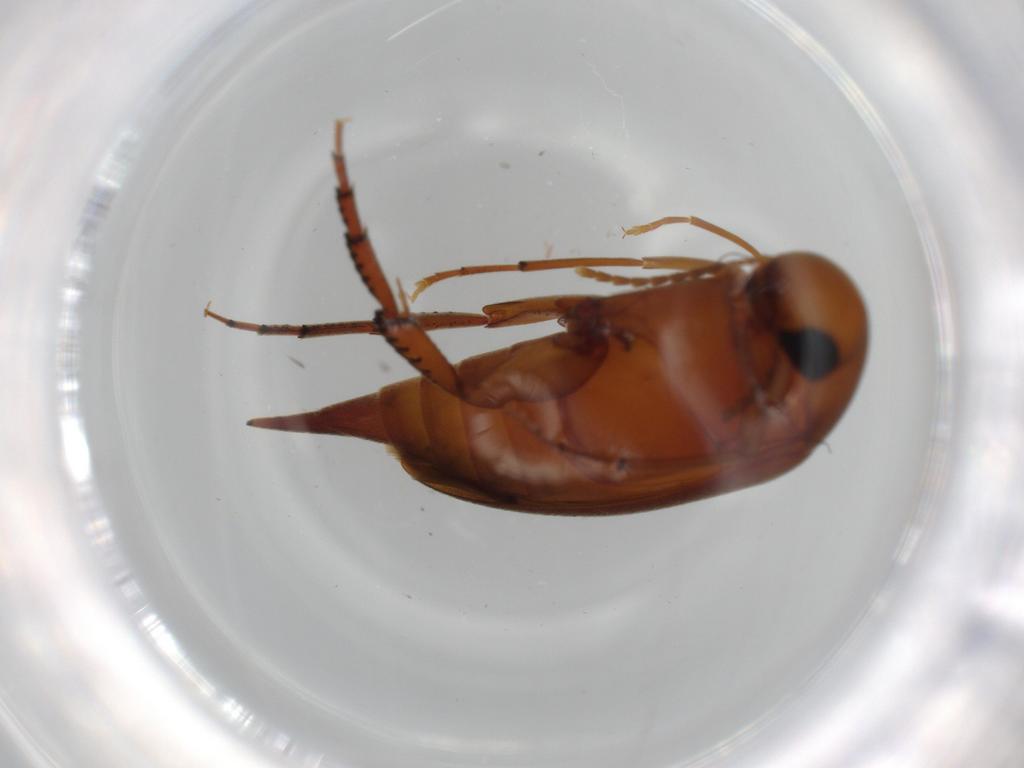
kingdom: Animalia
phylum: Arthropoda
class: Insecta
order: Coleoptera
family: Mordellidae
